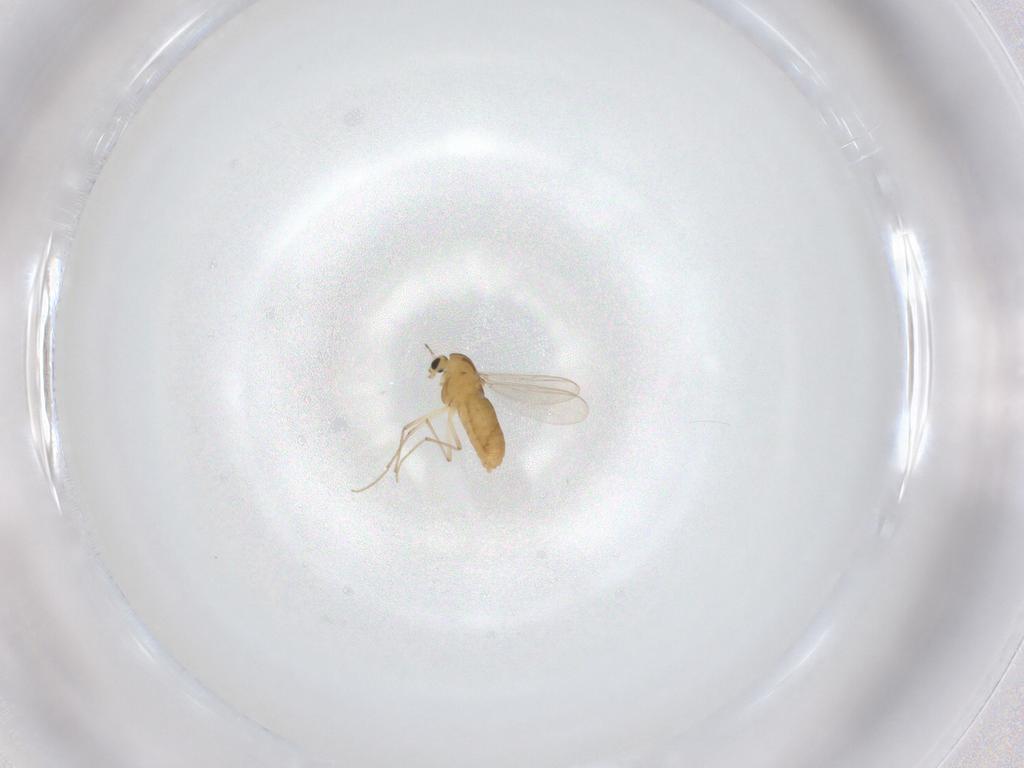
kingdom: Animalia
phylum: Arthropoda
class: Insecta
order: Diptera
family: Chironomidae
